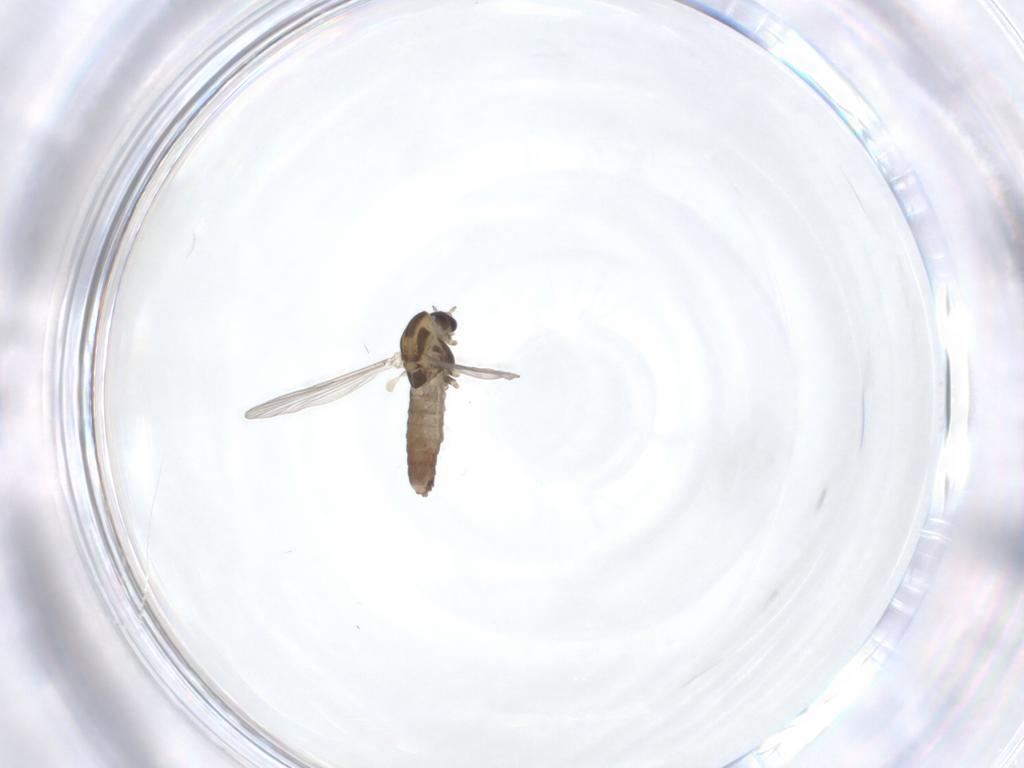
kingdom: Animalia
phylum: Arthropoda
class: Insecta
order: Diptera
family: Chironomidae
